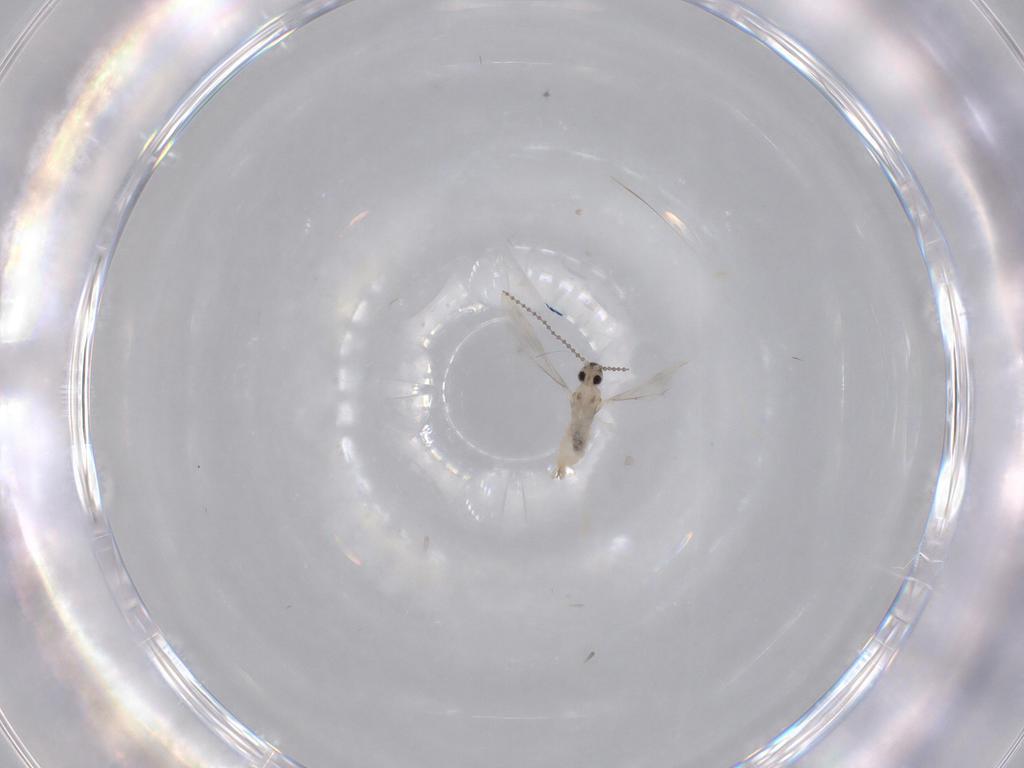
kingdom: Animalia
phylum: Arthropoda
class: Insecta
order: Diptera
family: Cecidomyiidae
